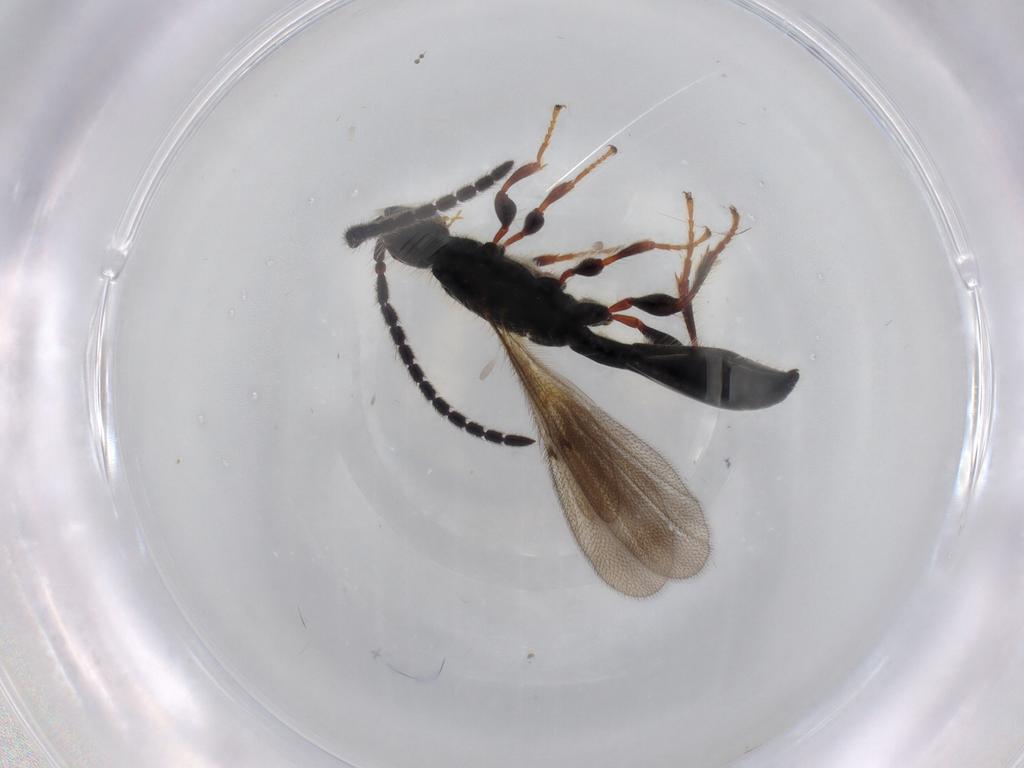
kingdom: Animalia
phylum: Arthropoda
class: Insecta
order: Hymenoptera
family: Diapriidae
